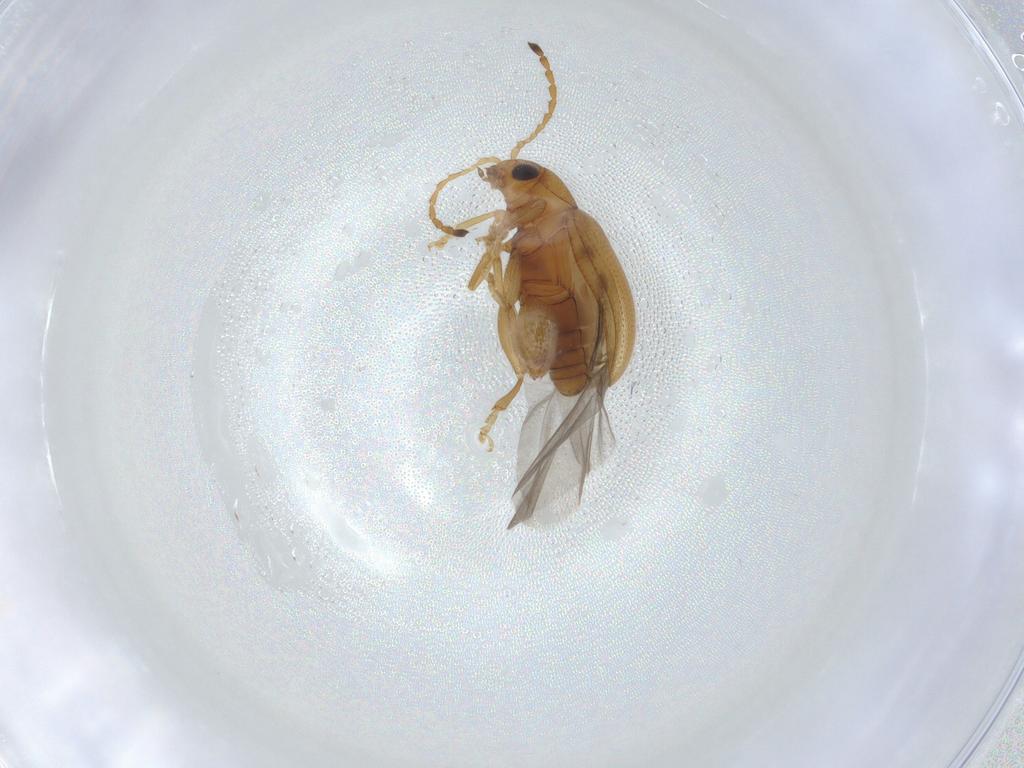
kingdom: Animalia
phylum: Arthropoda
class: Insecta
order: Coleoptera
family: Chrysomelidae
